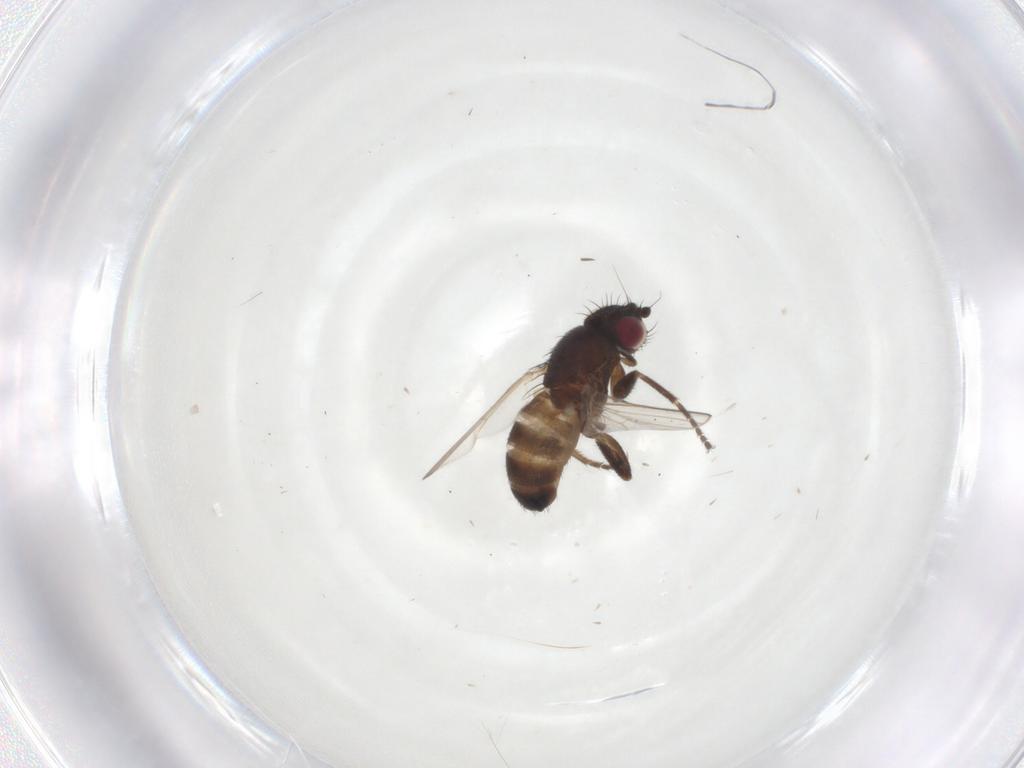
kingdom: Animalia
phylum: Arthropoda
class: Insecta
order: Diptera
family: Milichiidae
